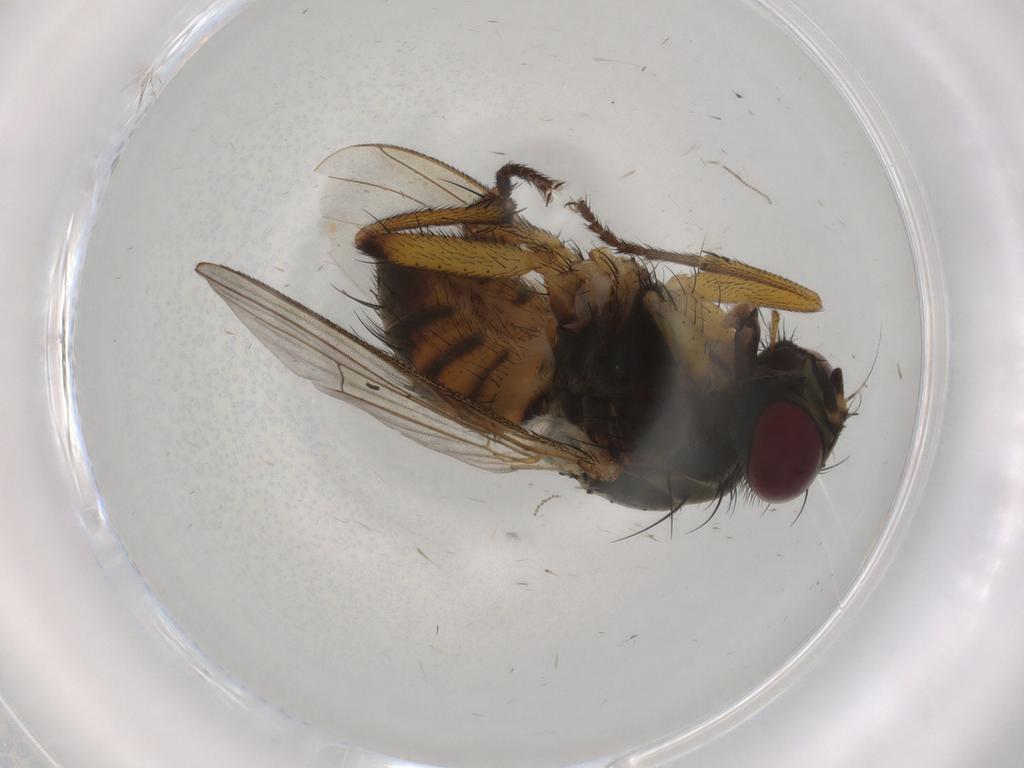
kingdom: Animalia
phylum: Arthropoda
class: Insecta
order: Diptera
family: Muscidae
